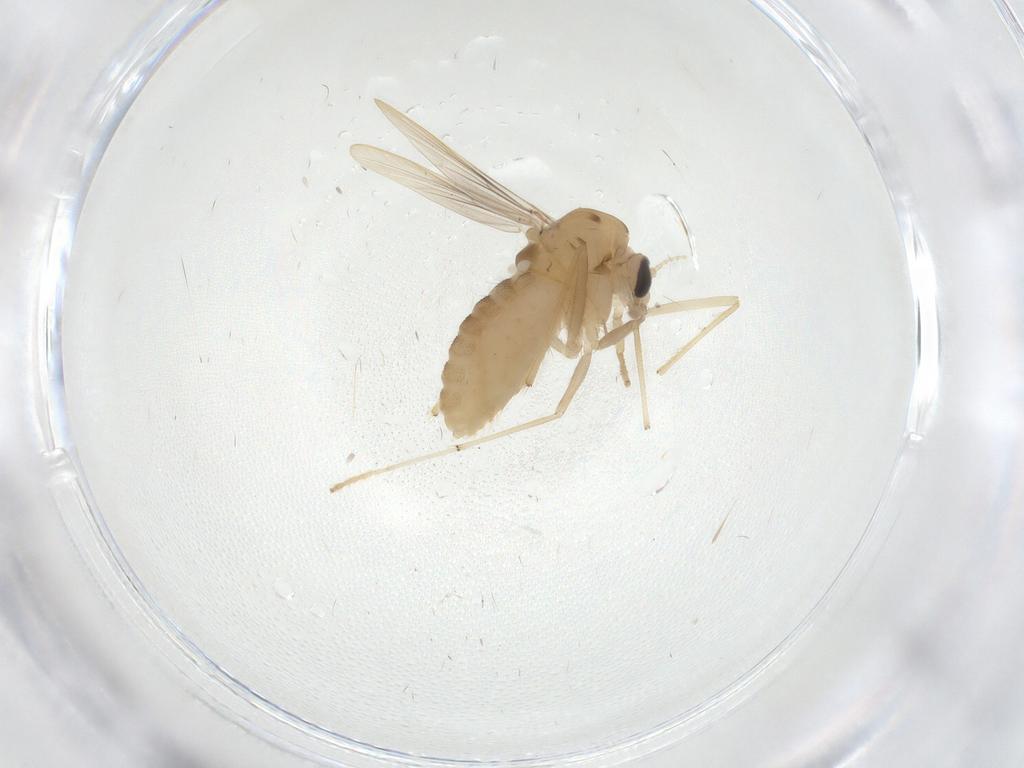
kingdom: Animalia
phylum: Arthropoda
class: Insecta
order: Diptera
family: Chironomidae
